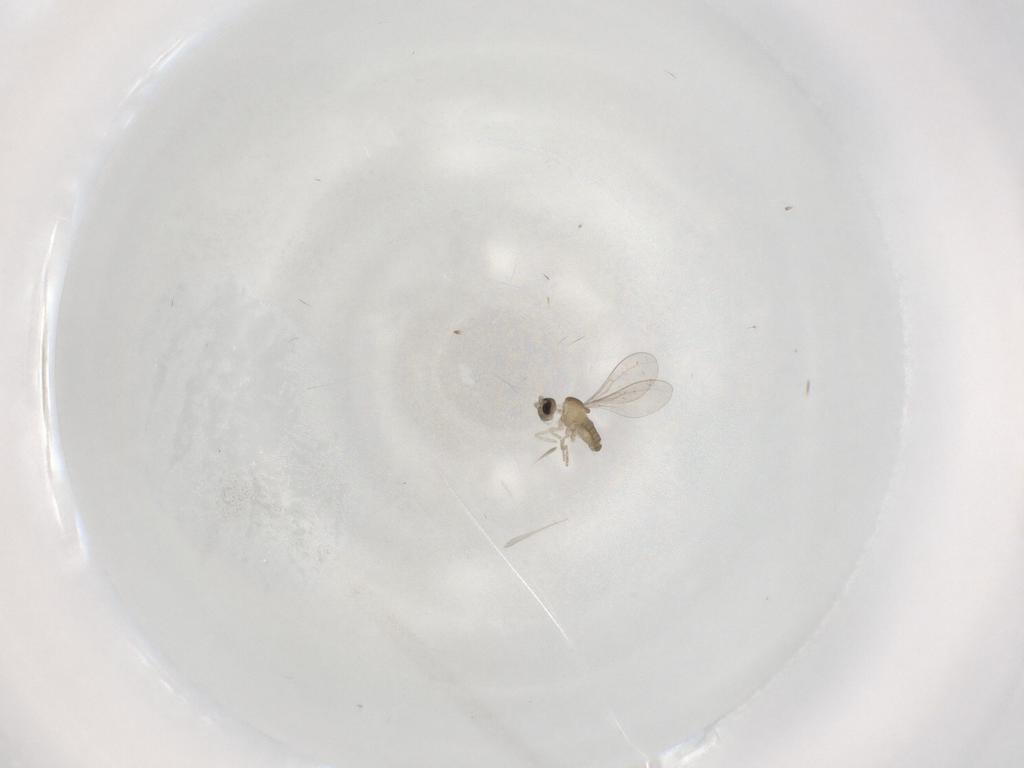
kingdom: Animalia
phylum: Arthropoda
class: Insecta
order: Diptera
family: Cecidomyiidae
